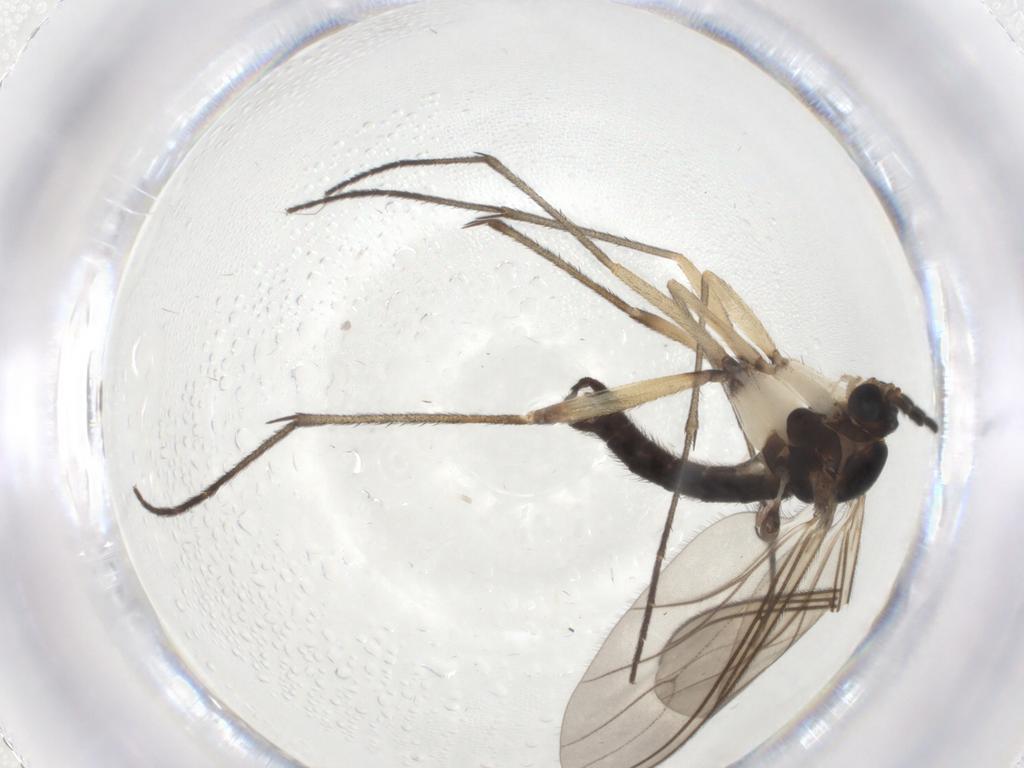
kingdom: Animalia
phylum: Arthropoda
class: Insecta
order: Diptera
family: Sciaridae
